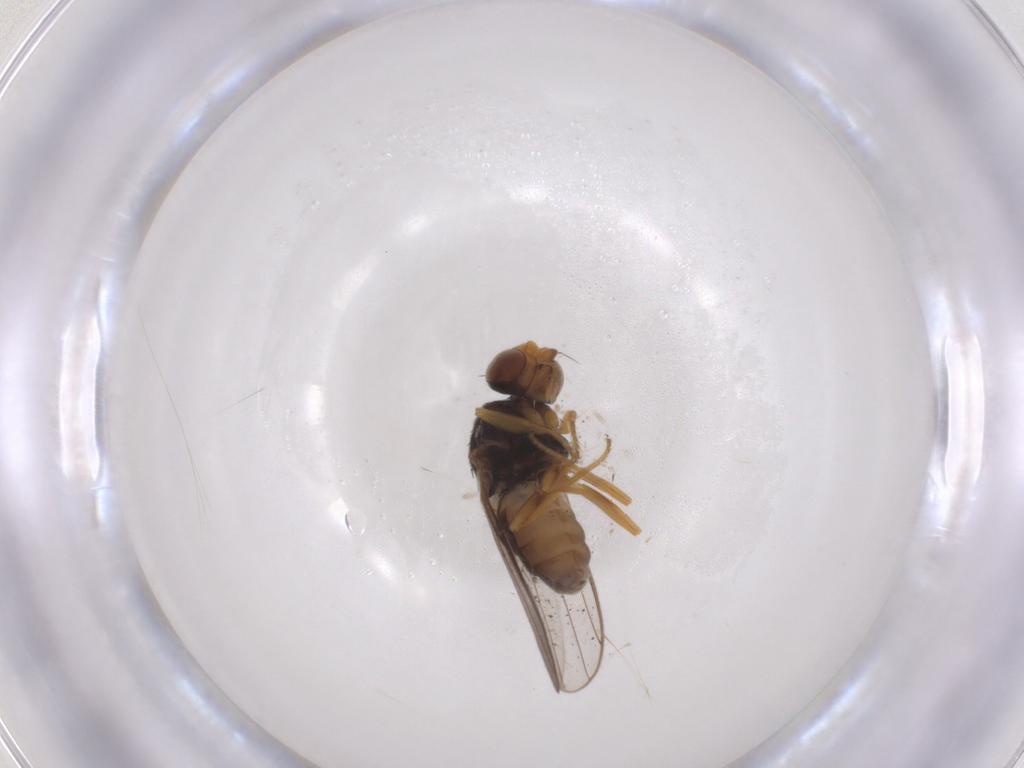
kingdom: Animalia
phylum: Arthropoda
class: Insecta
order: Diptera
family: Chloropidae
